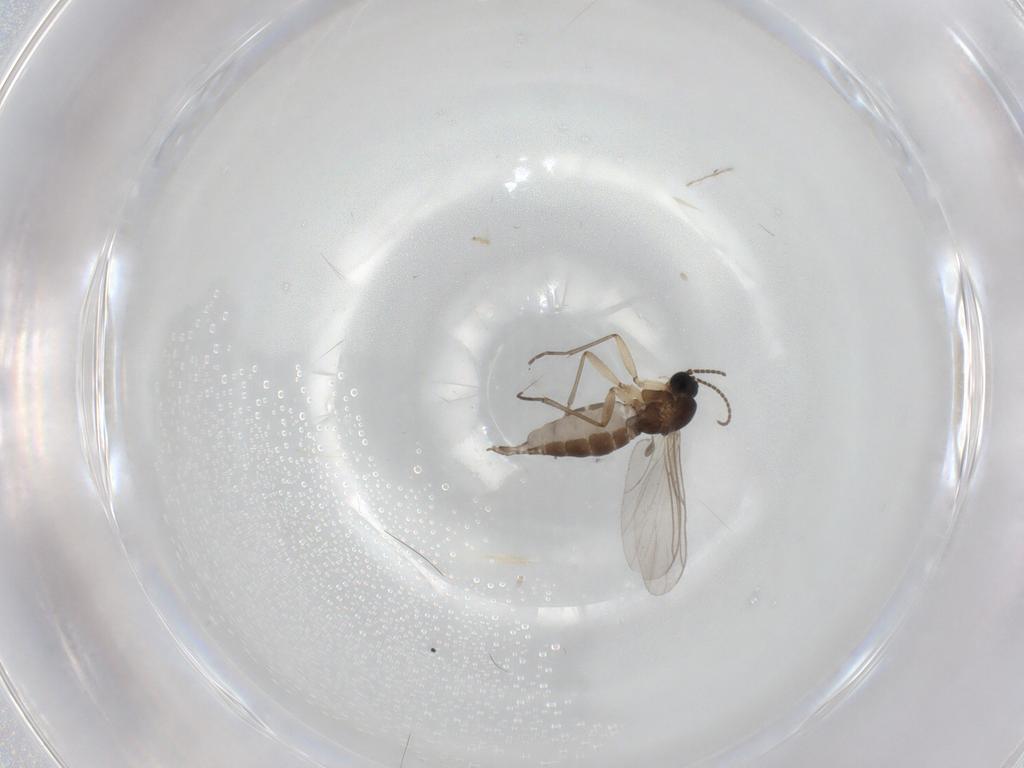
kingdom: Animalia
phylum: Arthropoda
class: Insecta
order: Diptera
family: Sciaridae
